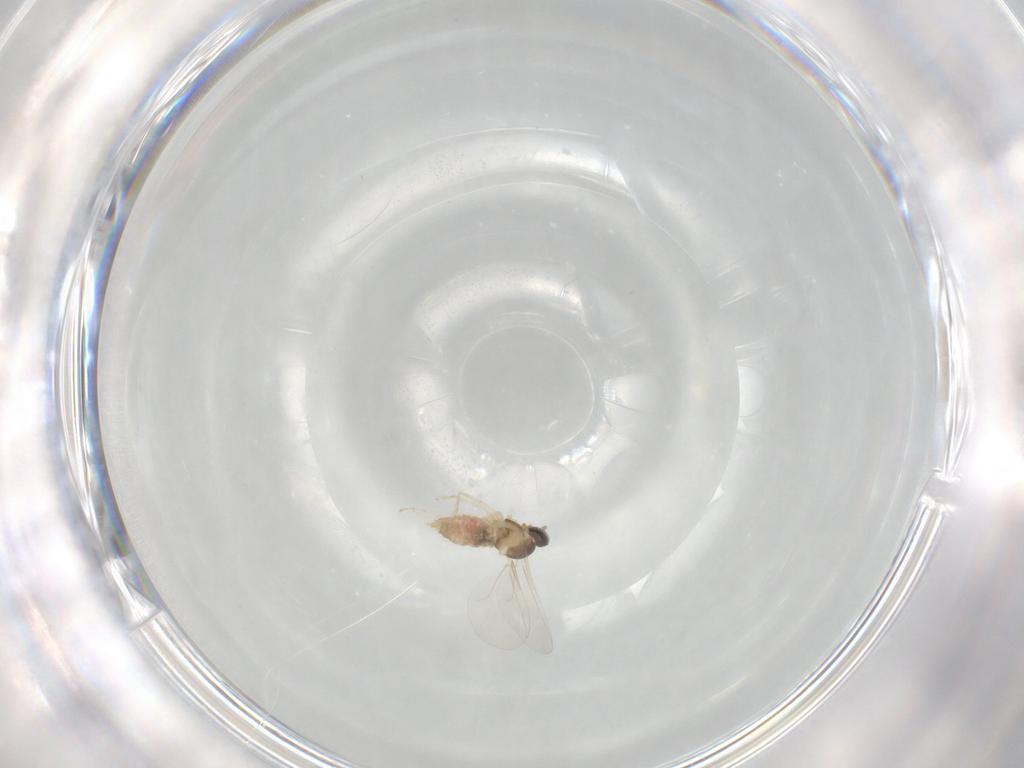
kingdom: Animalia
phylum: Arthropoda
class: Insecta
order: Diptera
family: Cecidomyiidae
